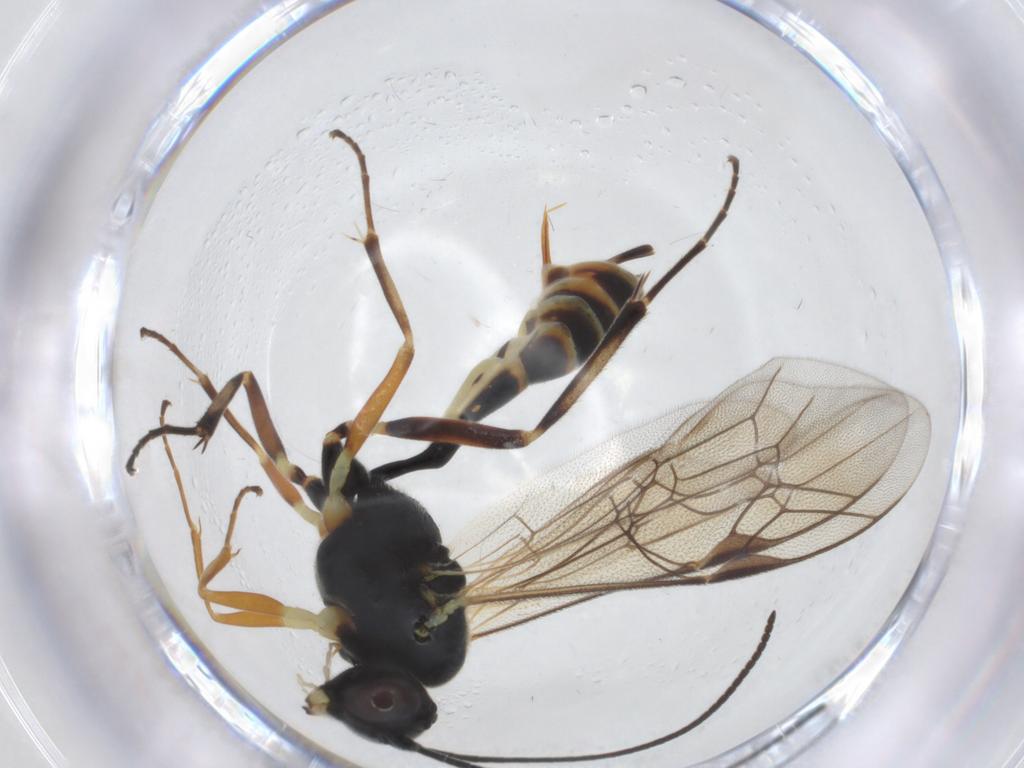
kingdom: Animalia
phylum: Arthropoda
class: Insecta
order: Hymenoptera
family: Ichneumonidae
